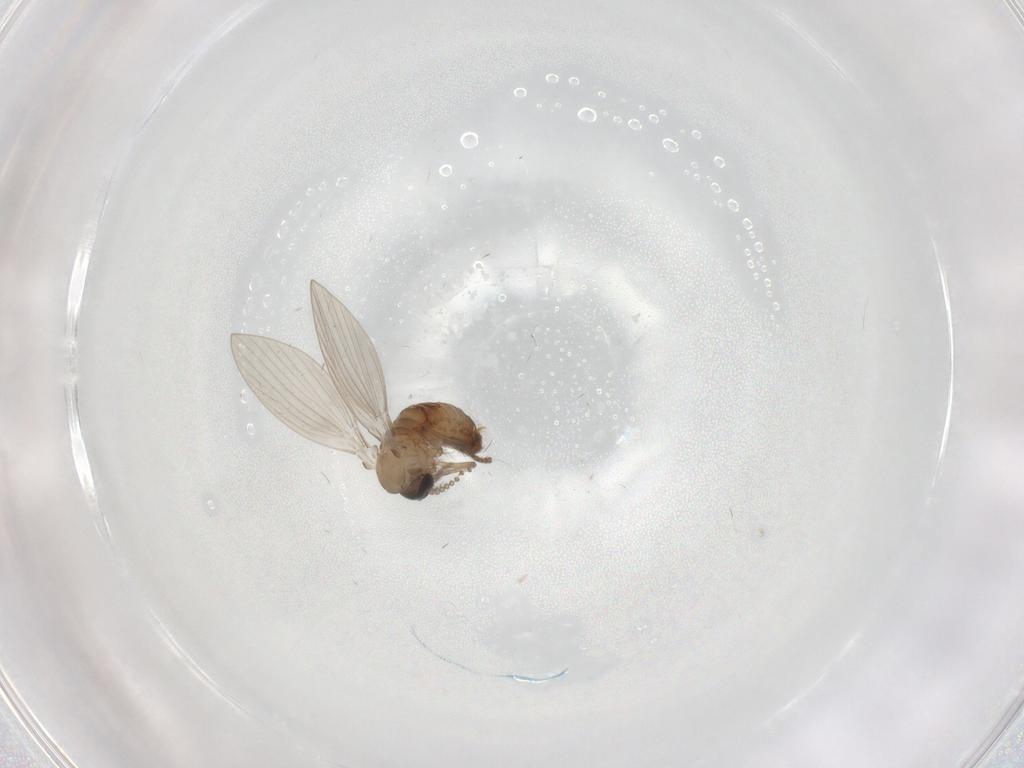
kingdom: Animalia
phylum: Arthropoda
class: Insecta
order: Diptera
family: Psychodidae
